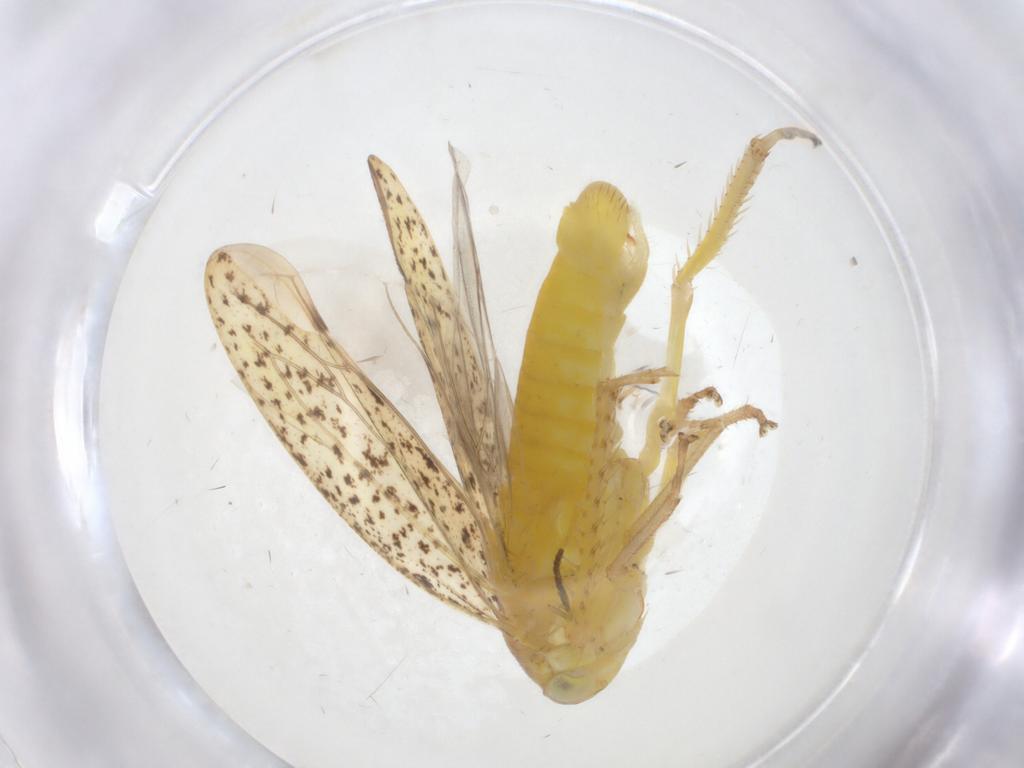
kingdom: Animalia
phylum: Arthropoda
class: Insecta
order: Hemiptera
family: Cicadellidae
